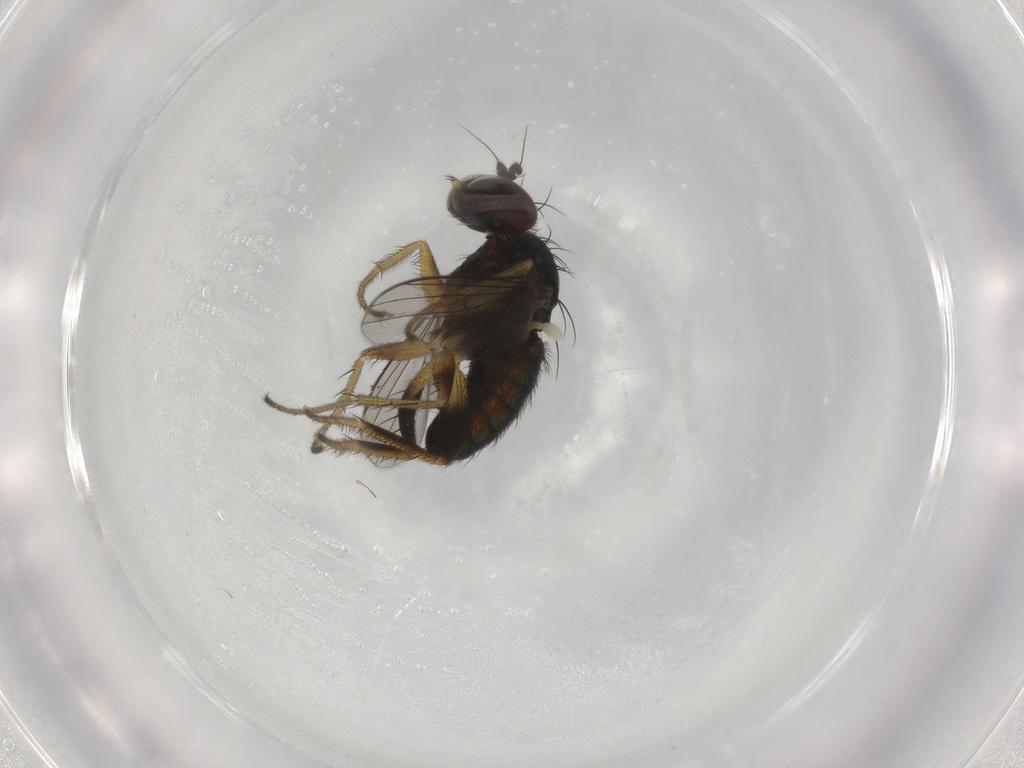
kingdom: Animalia
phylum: Arthropoda
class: Insecta
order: Diptera
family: Dolichopodidae
